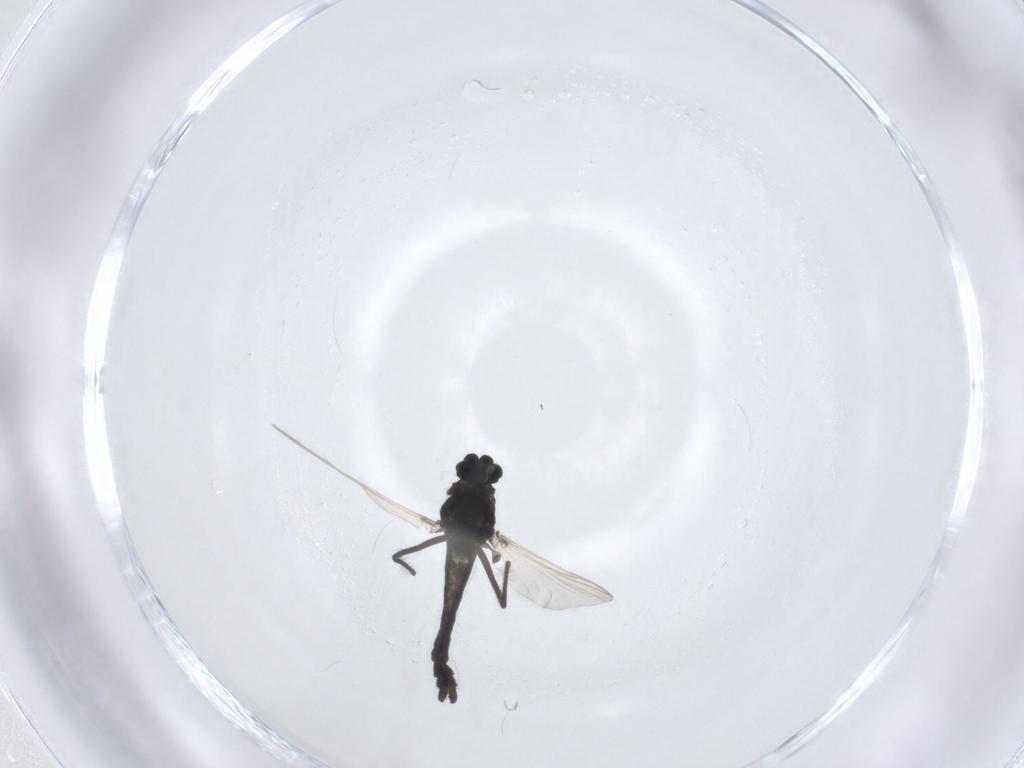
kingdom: Animalia
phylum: Arthropoda
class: Insecta
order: Diptera
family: Chironomidae
